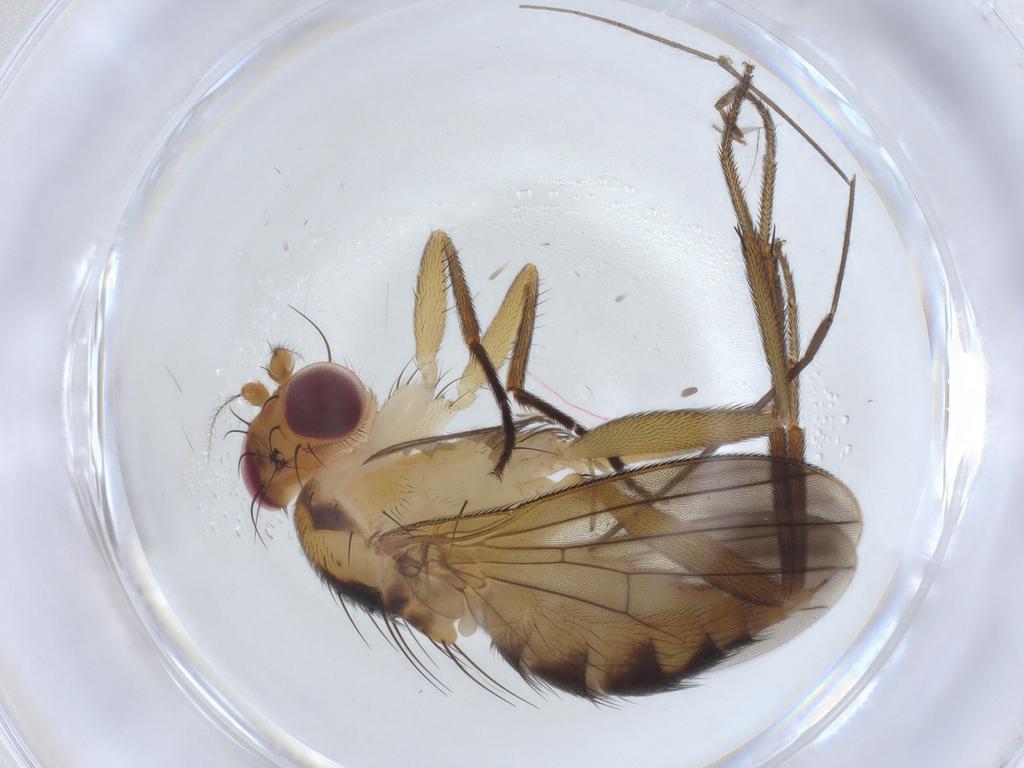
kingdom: Animalia
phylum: Arthropoda
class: Insecta
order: Diptera
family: Clusiidae
